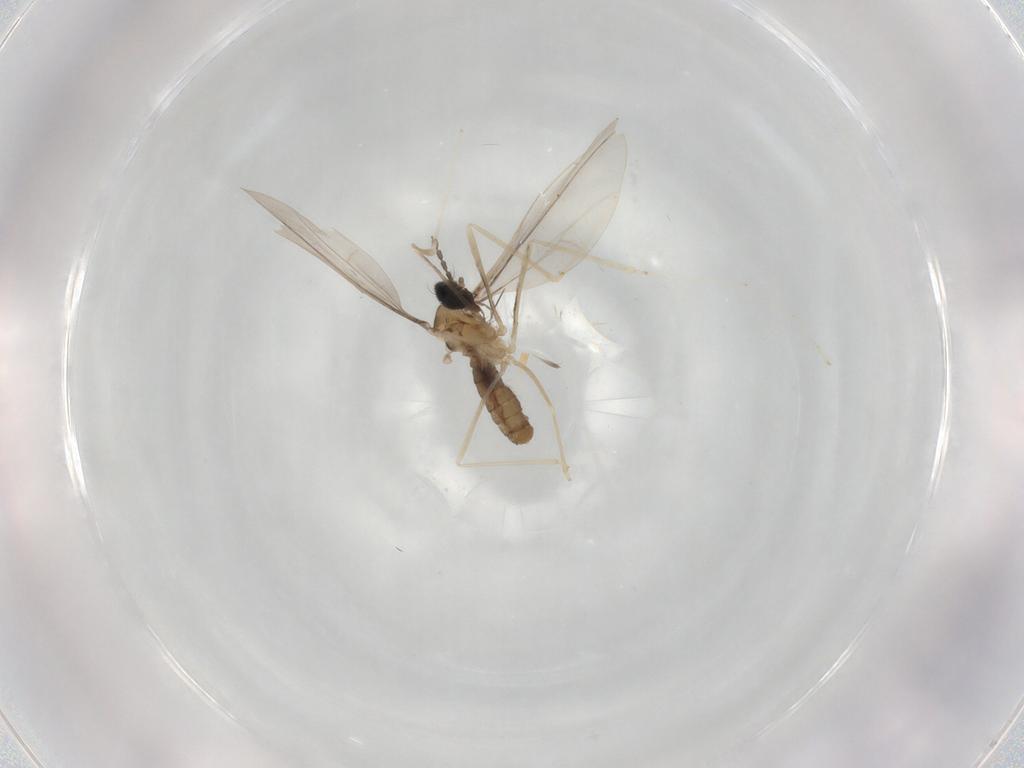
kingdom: Animalia
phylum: Arthropoda
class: Insecta
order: Diptera
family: Cecidomyiidae
